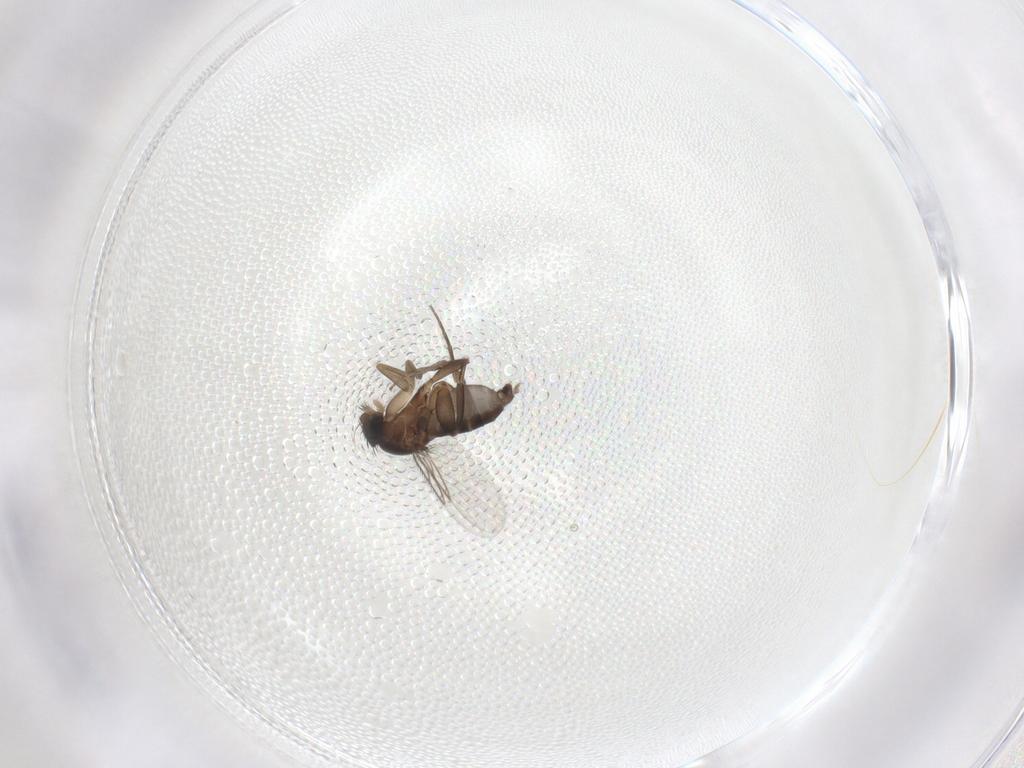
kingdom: Animalia
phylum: Arthropoda
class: Insecta
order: Diptera
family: Phoridae
